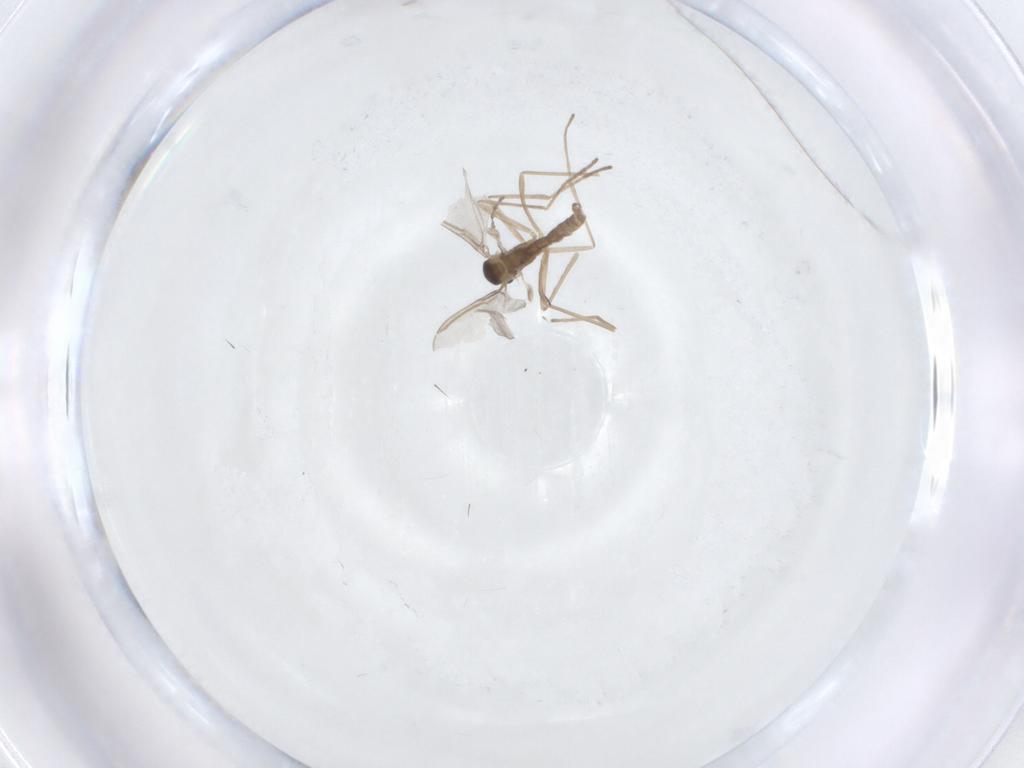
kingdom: Animalia
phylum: Arthropoda
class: Insecta
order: Diptera
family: Cecidomyiidae
